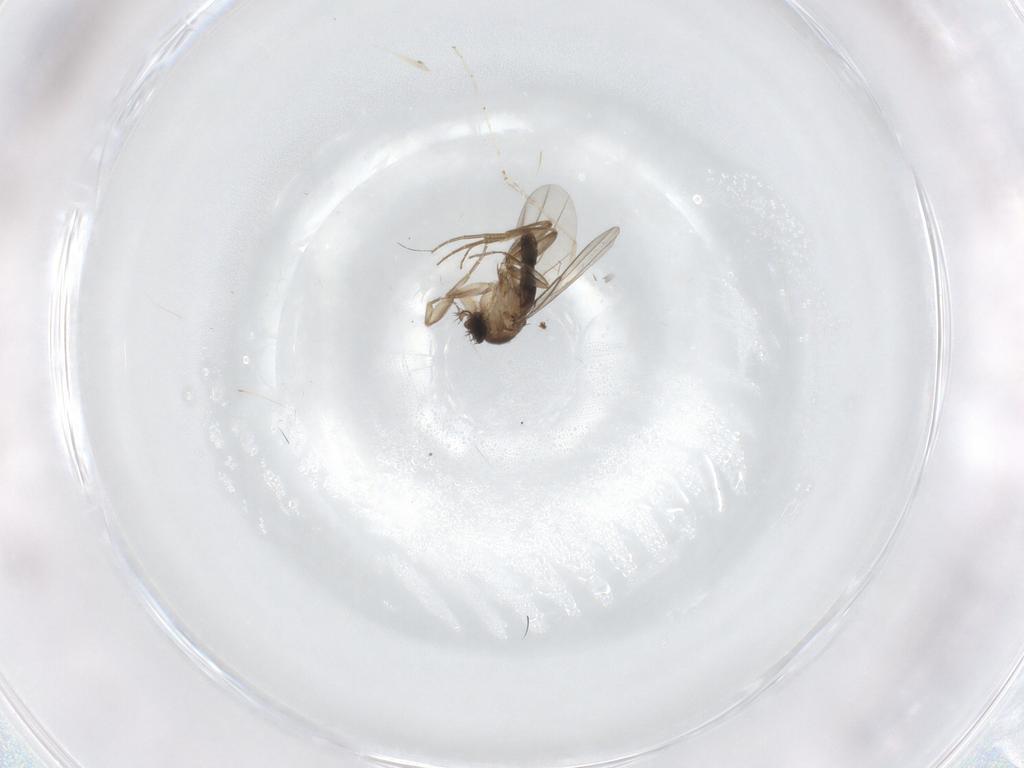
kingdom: Animalia
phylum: Arthropoda
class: Insecta
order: Diptera
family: Phoridae
